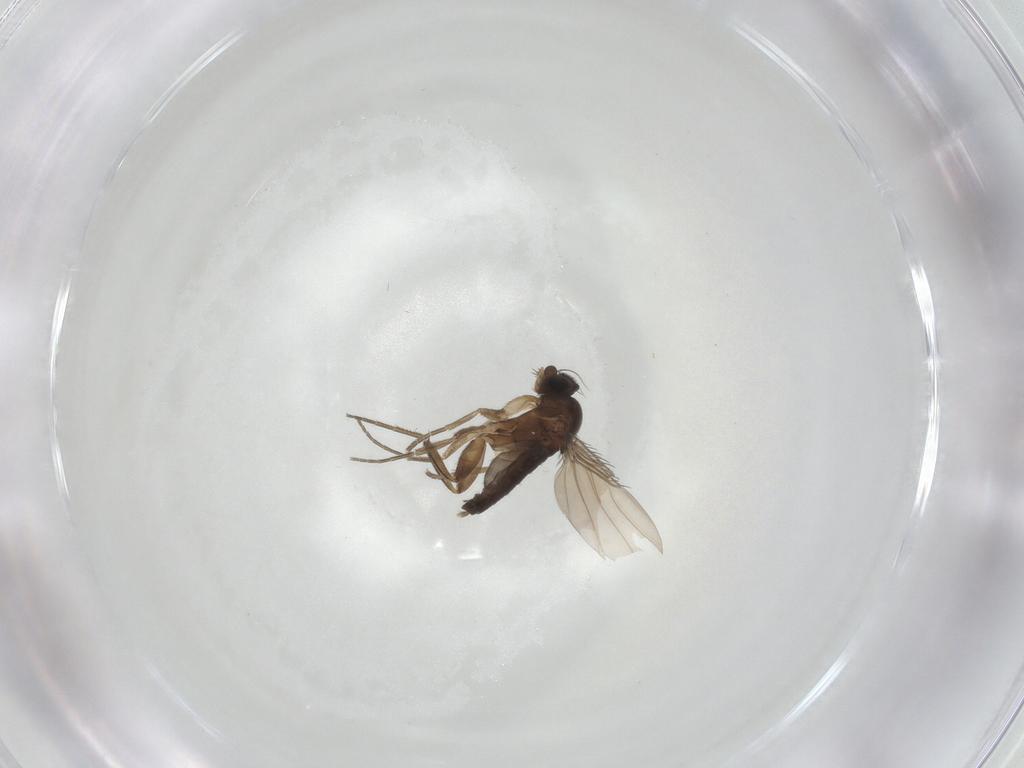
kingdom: Animalia
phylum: Arthropoda
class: Insecta
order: Diptera
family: Phoridae
